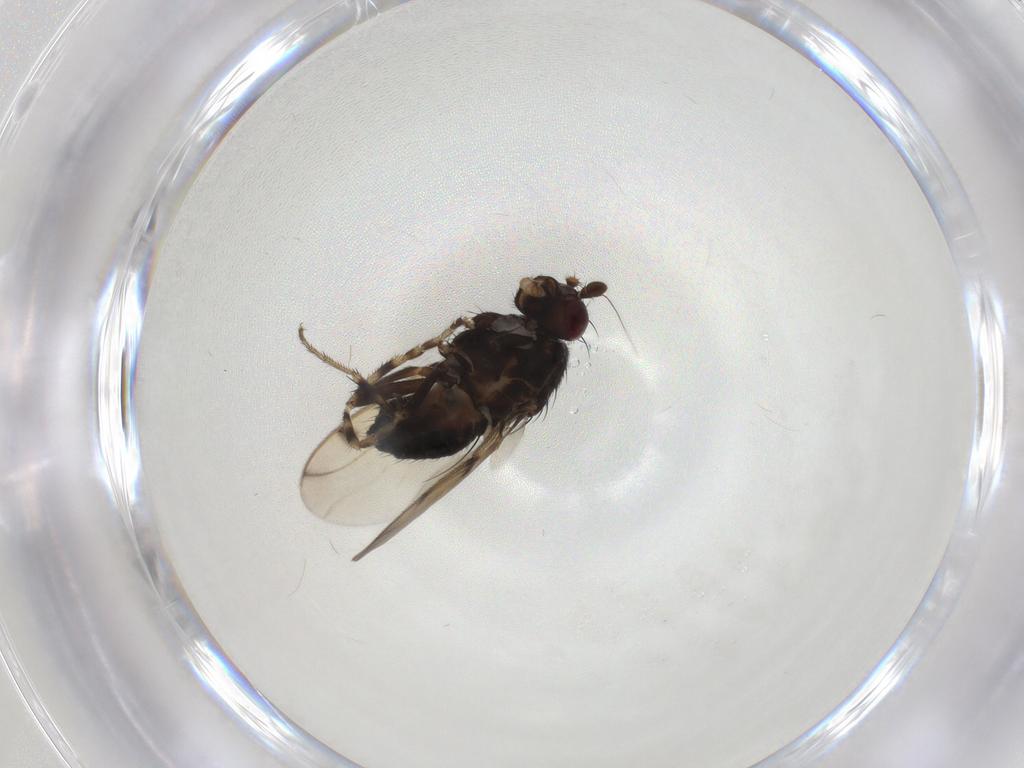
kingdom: Animalia
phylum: Arthropoda
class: Insecta
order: Diptera
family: Sphaeroceridae
